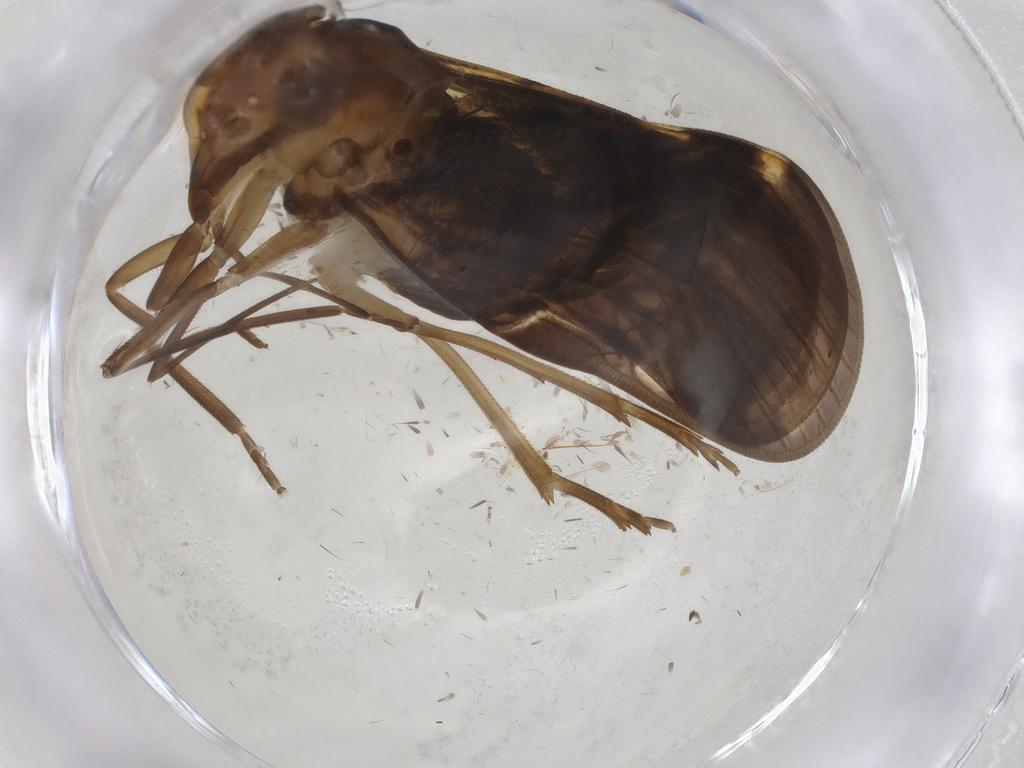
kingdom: Animalia
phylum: Arthropoda
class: Insecta
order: Hemiptera
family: Cixiidae
